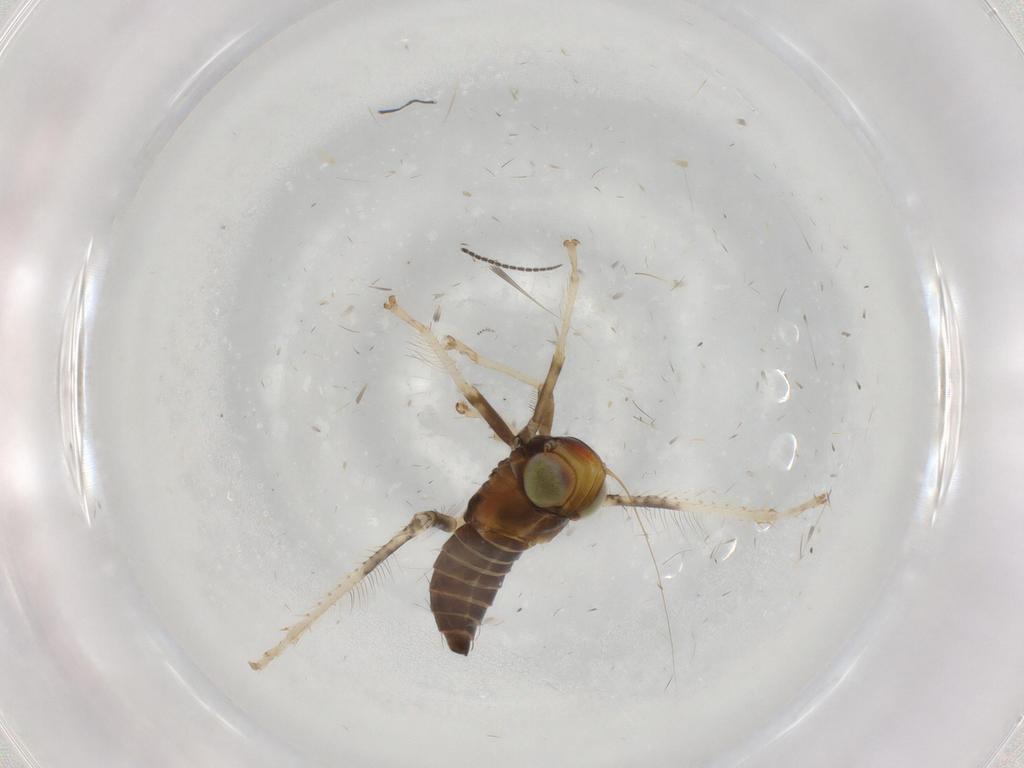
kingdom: Animalia
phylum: Arthropoda
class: Insecta
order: Hemiptera
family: Cicadellidae
